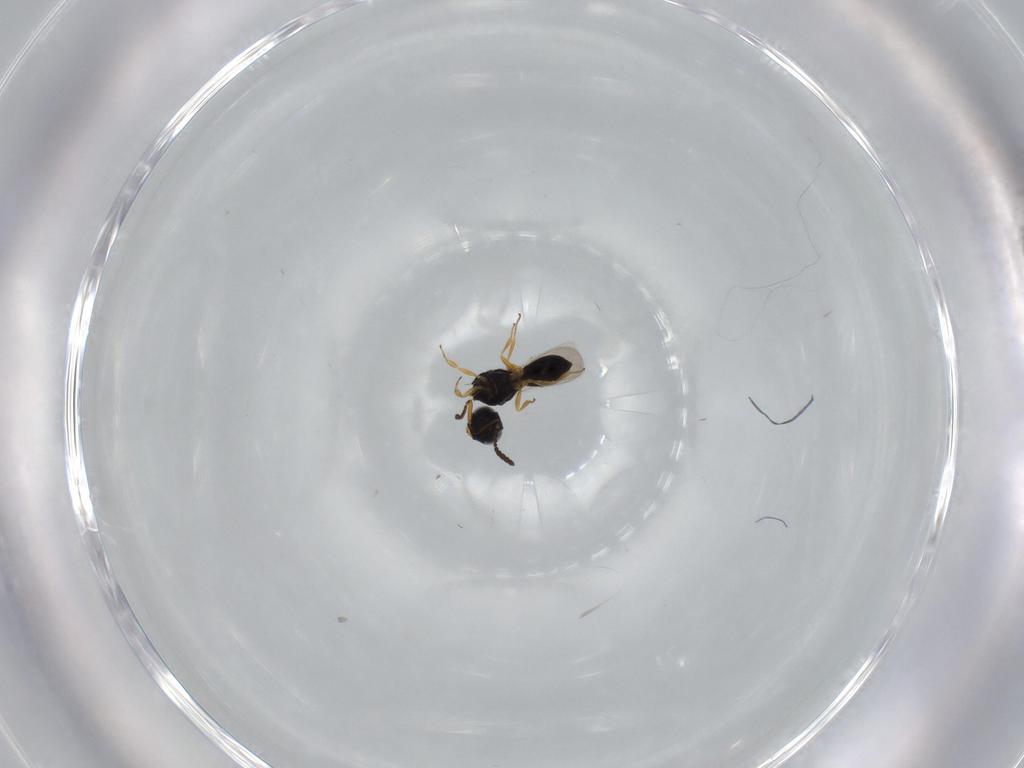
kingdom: Animalia
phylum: Arthropoda
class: Insecta
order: Hymenoptera
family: Scelionidae
